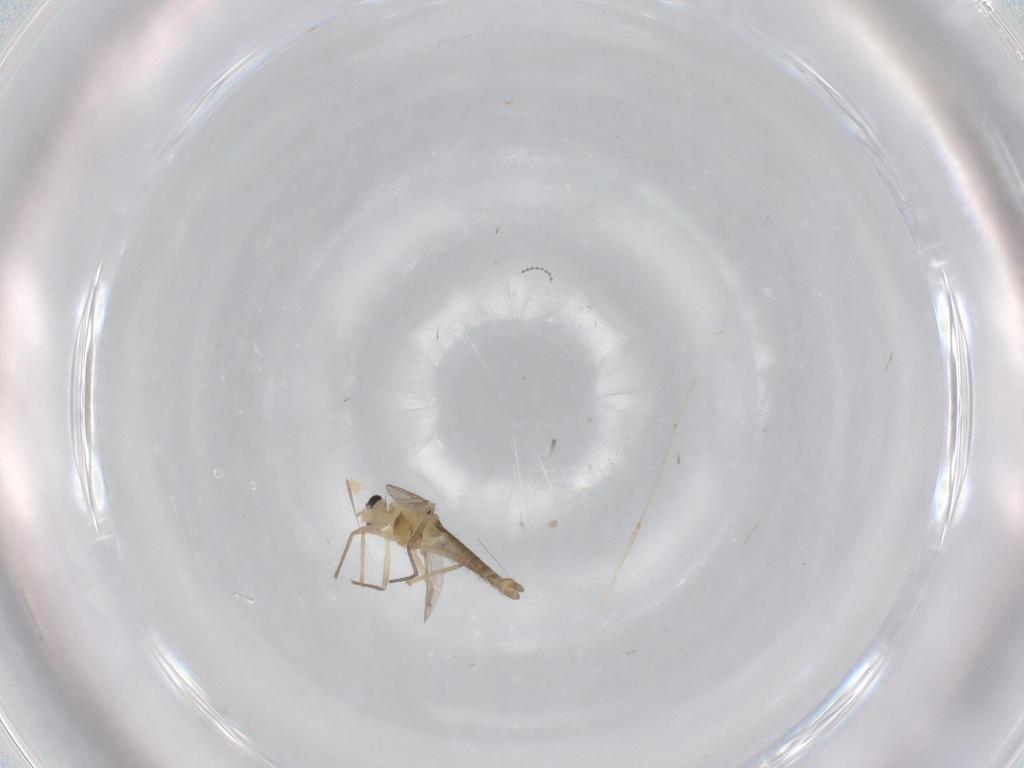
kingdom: Animalia
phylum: Arthropoda
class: Insecta
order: Diptera
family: Chironomidae
